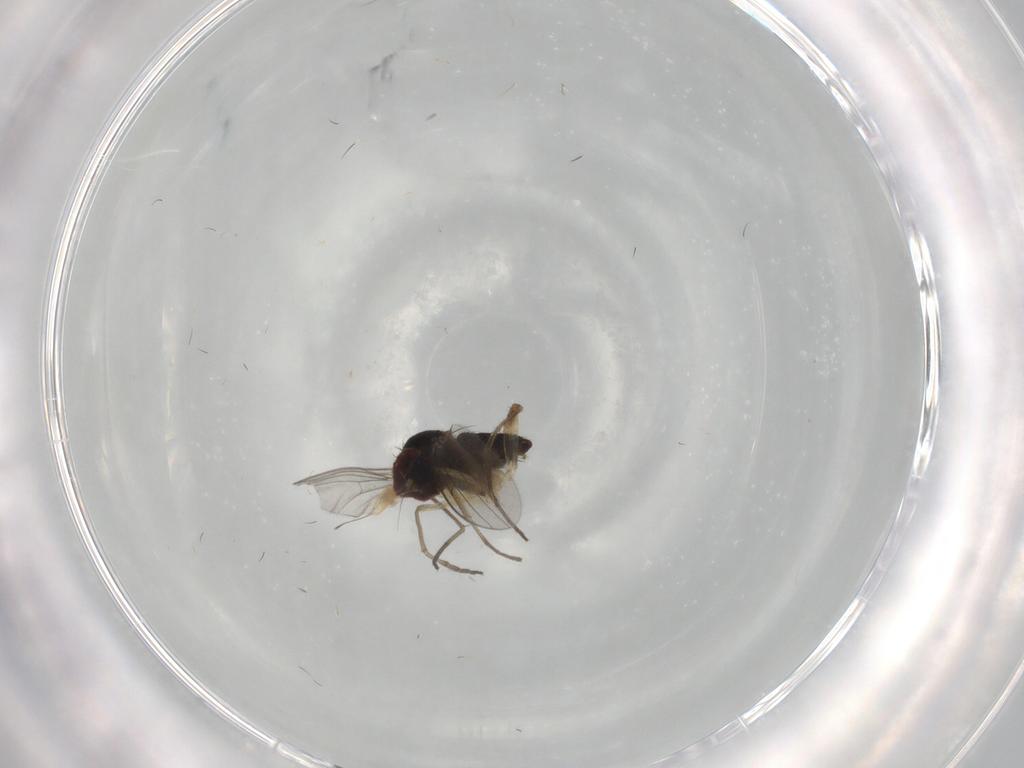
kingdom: Animalia
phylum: Arthropoda
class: Insecta
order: Diptera
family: Dolichopodidae
